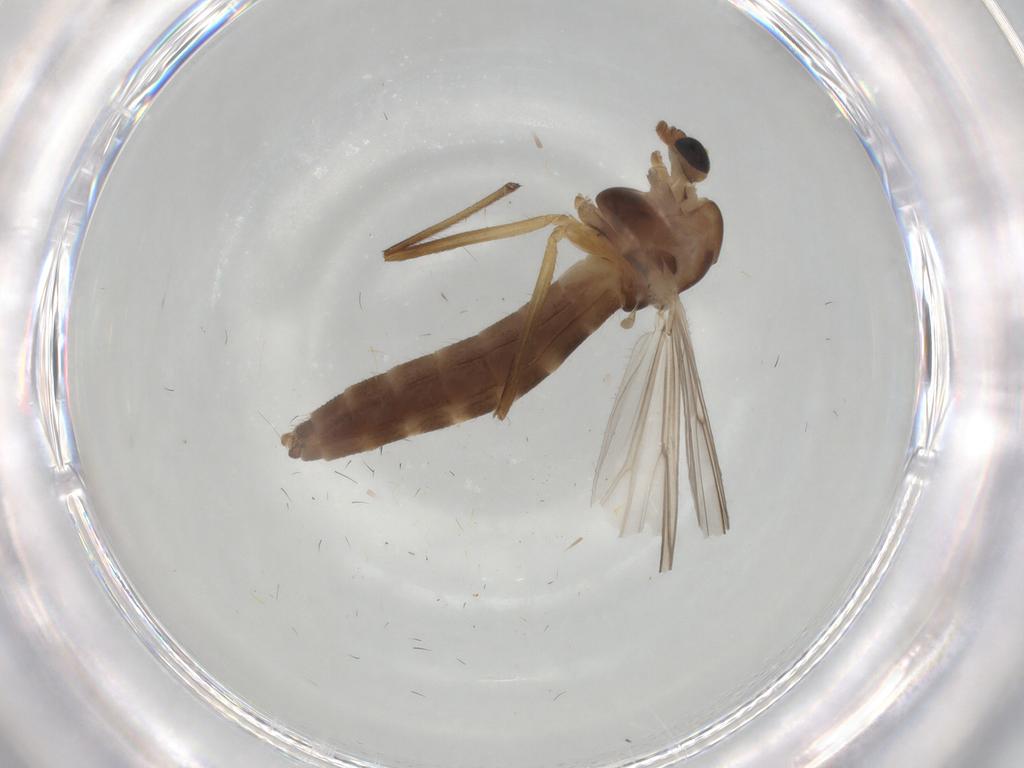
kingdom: Animalia
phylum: Arthropoda
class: Insecta
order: Diptera
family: Chironomidae
